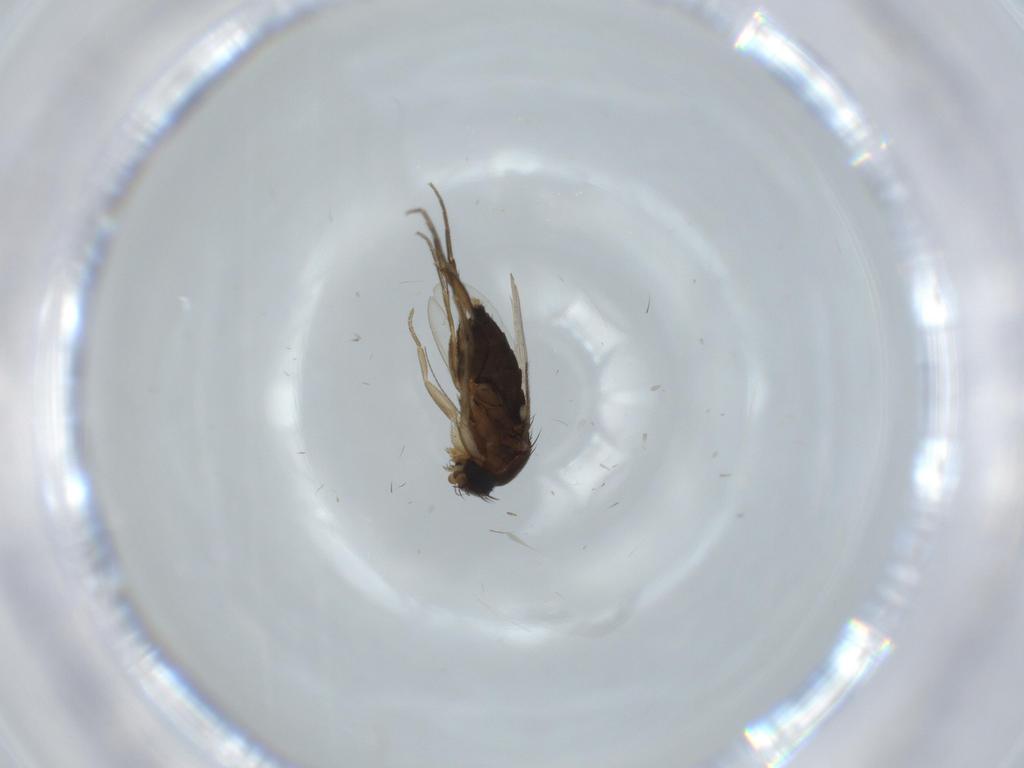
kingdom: Animalia
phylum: Arthropoda
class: Insecta
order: Diptera
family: Phoridae
